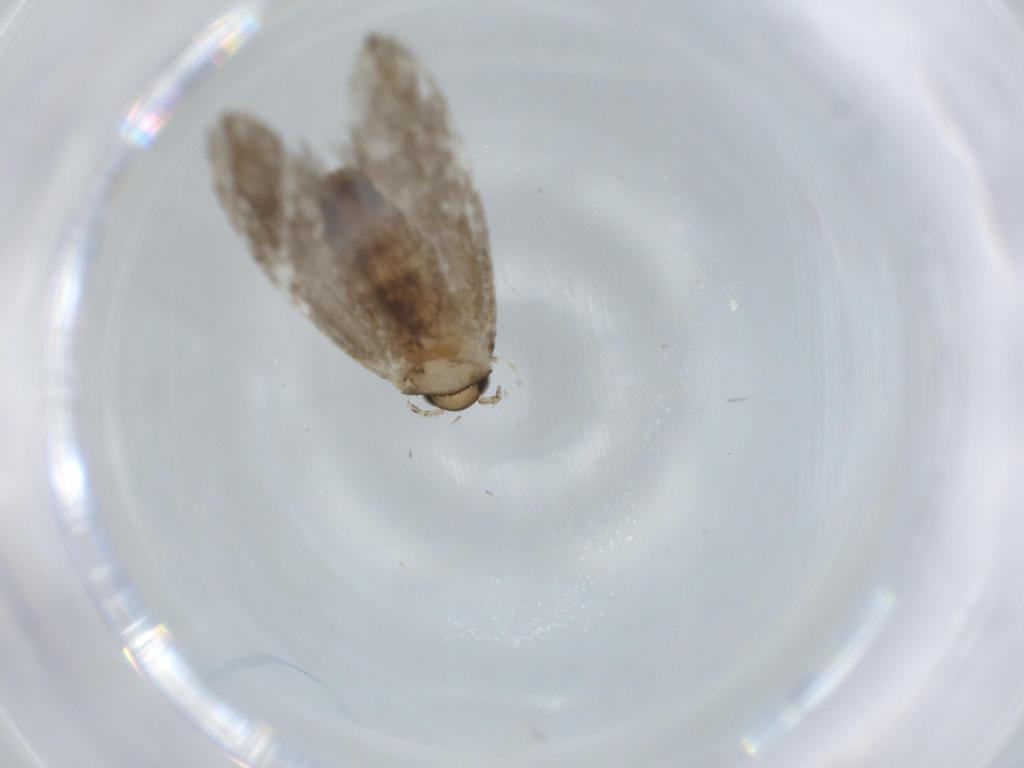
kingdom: Animalia
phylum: Arthropoda
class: Insecta
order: Lepidoptera
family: Tineidae
